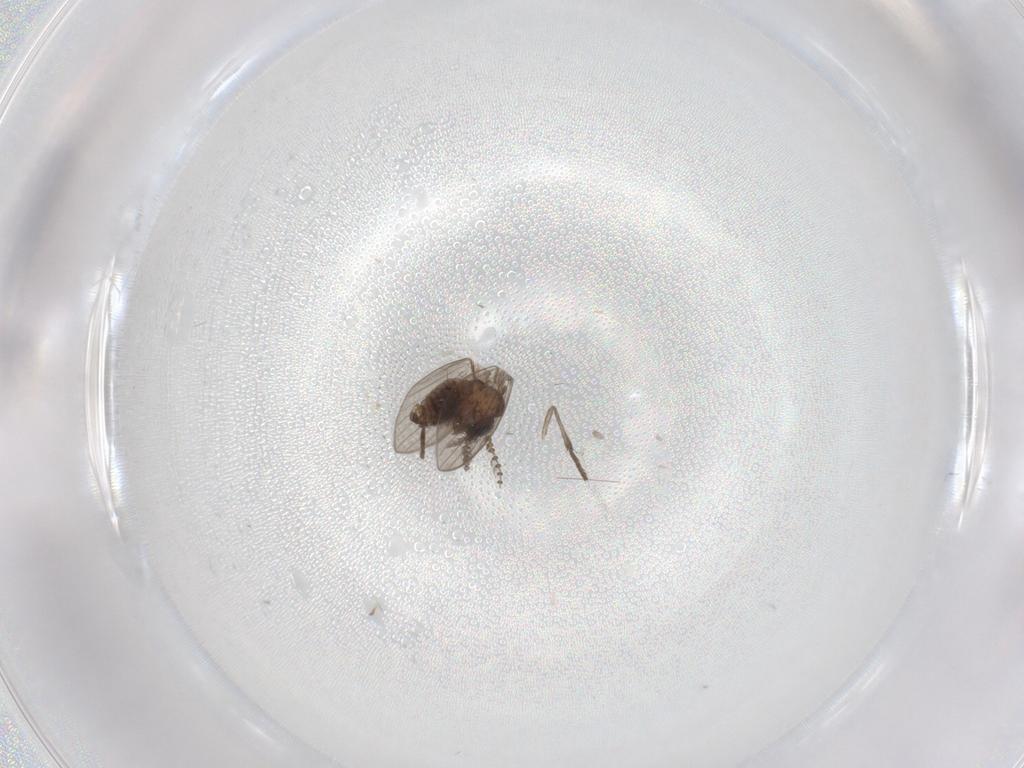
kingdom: Animalia
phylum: Arthropoda
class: Insecta
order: Diptera
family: Psychodidae
